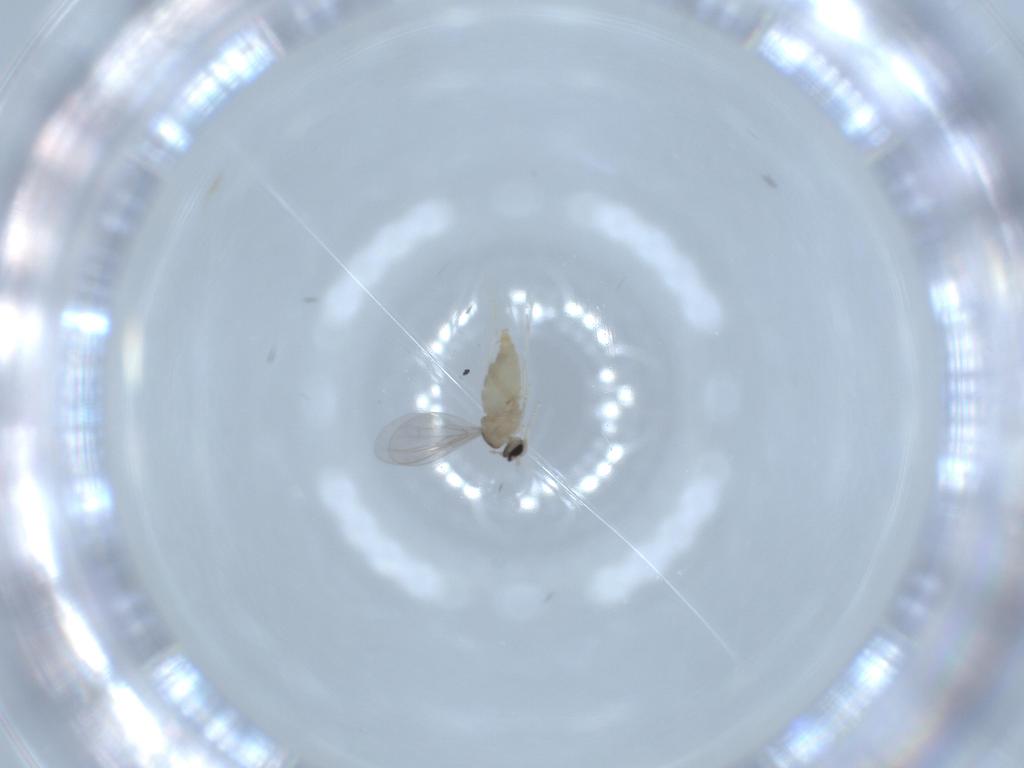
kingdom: Animalia
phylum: Arthropoda
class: Insecta
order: Diptera
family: Cecidomyiidae
